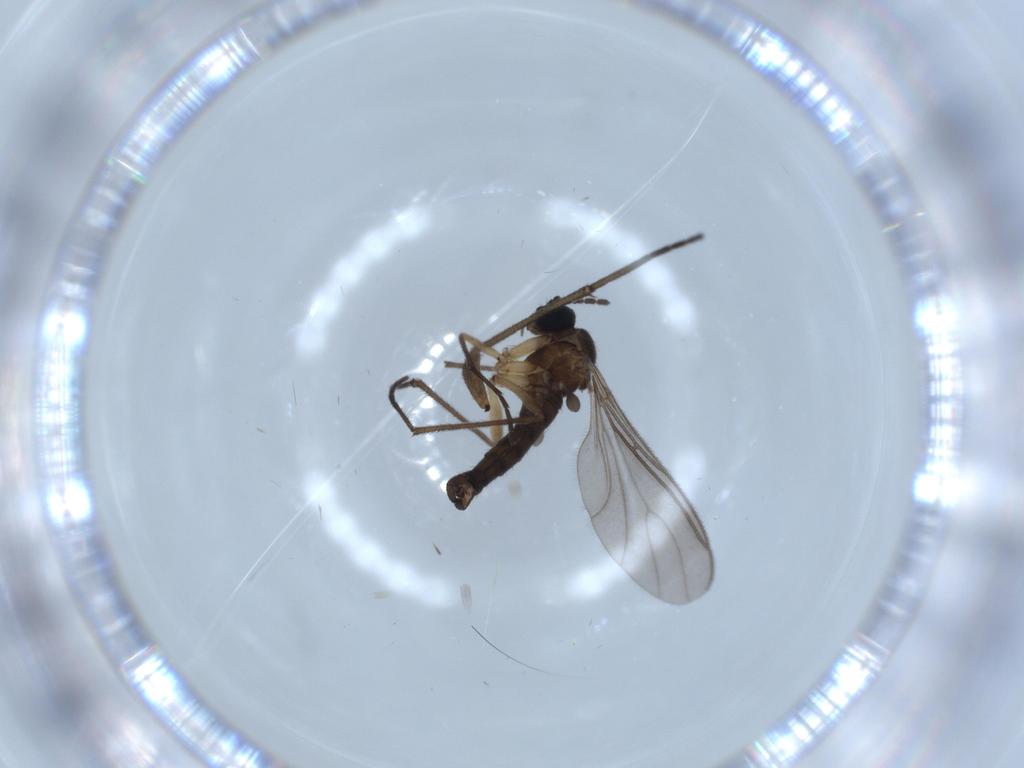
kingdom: Animalia
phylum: Arthropoda
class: Insecta
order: Diptera
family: Sciaridae
